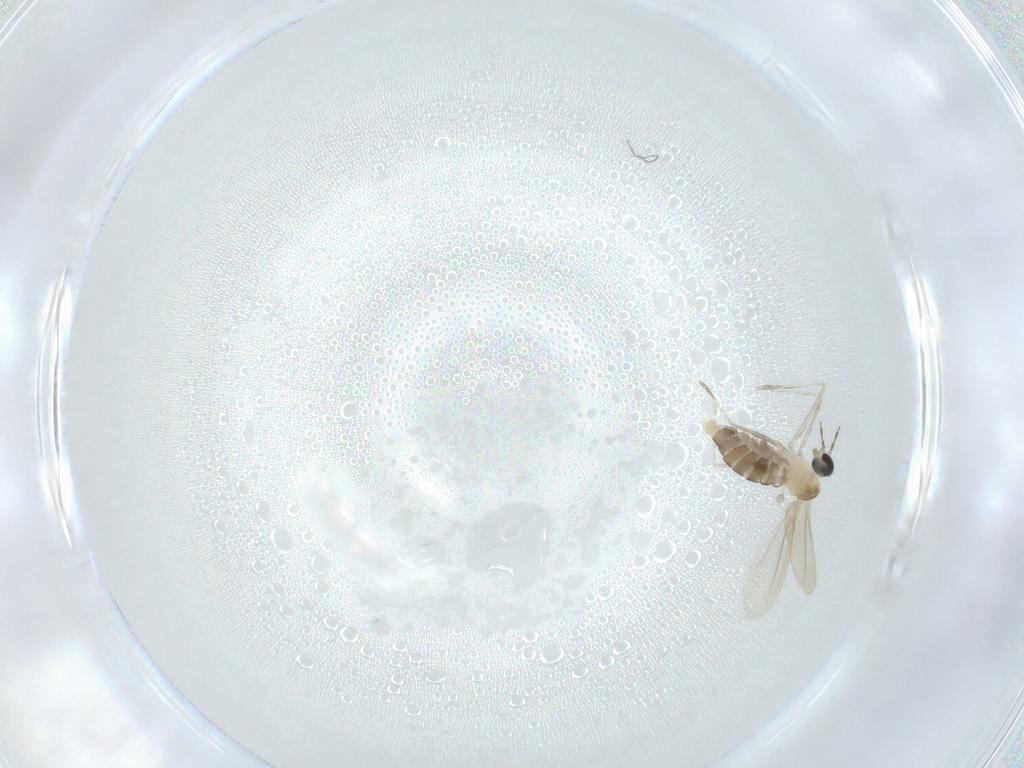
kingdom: Animalia
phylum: Arthropoda
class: Insecta
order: Diptera
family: Cecidomyiidae
